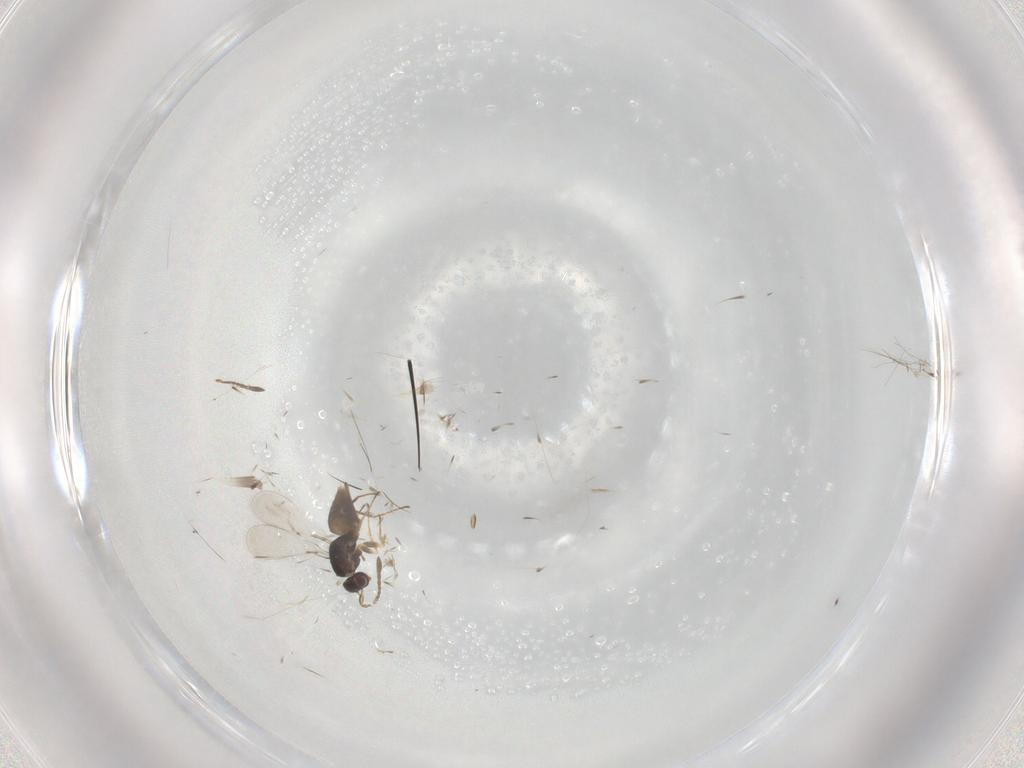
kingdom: Animalia
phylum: Arthropoda
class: Insecta
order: Hymenoptera
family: Mymaridae
